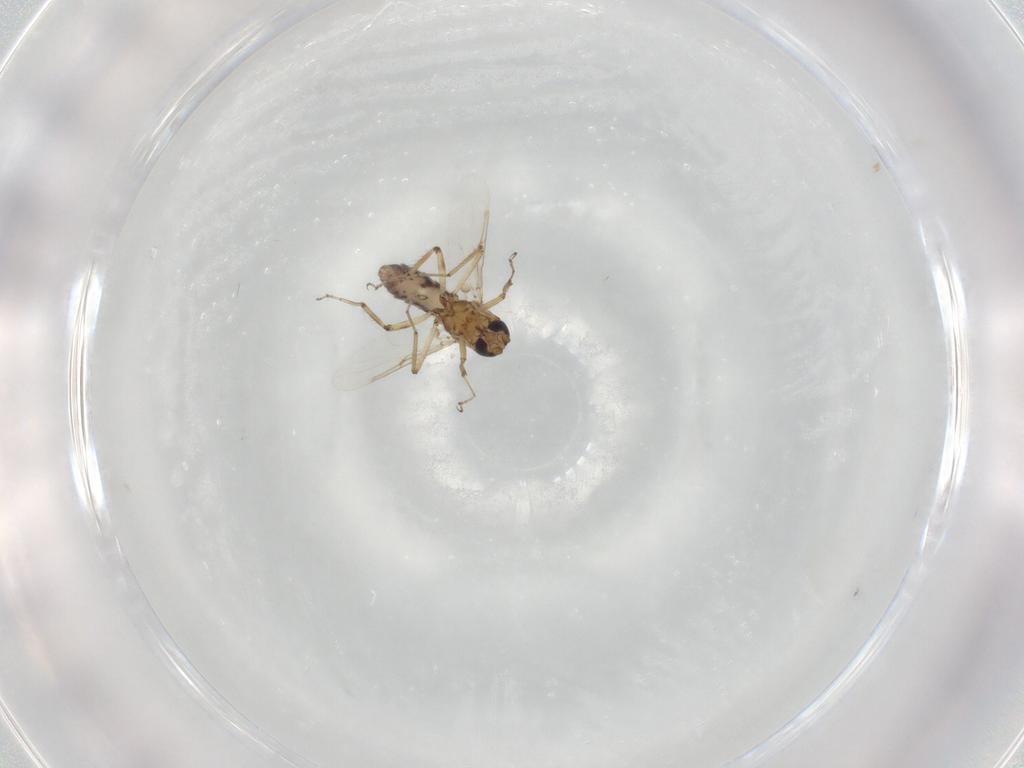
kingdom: Animalia
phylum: Arthropoda
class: Insecta
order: Diptera
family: Ceratopogonidae
